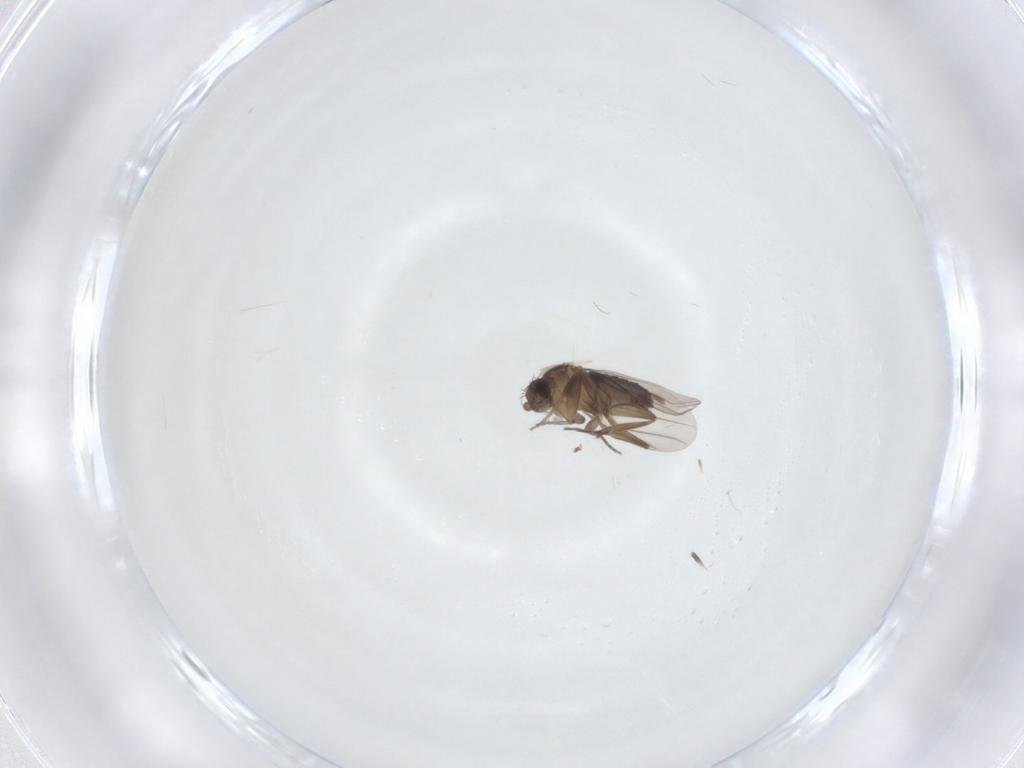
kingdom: Animalia
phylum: Arthropoda
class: Insecta
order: Diptera
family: Phoridae
